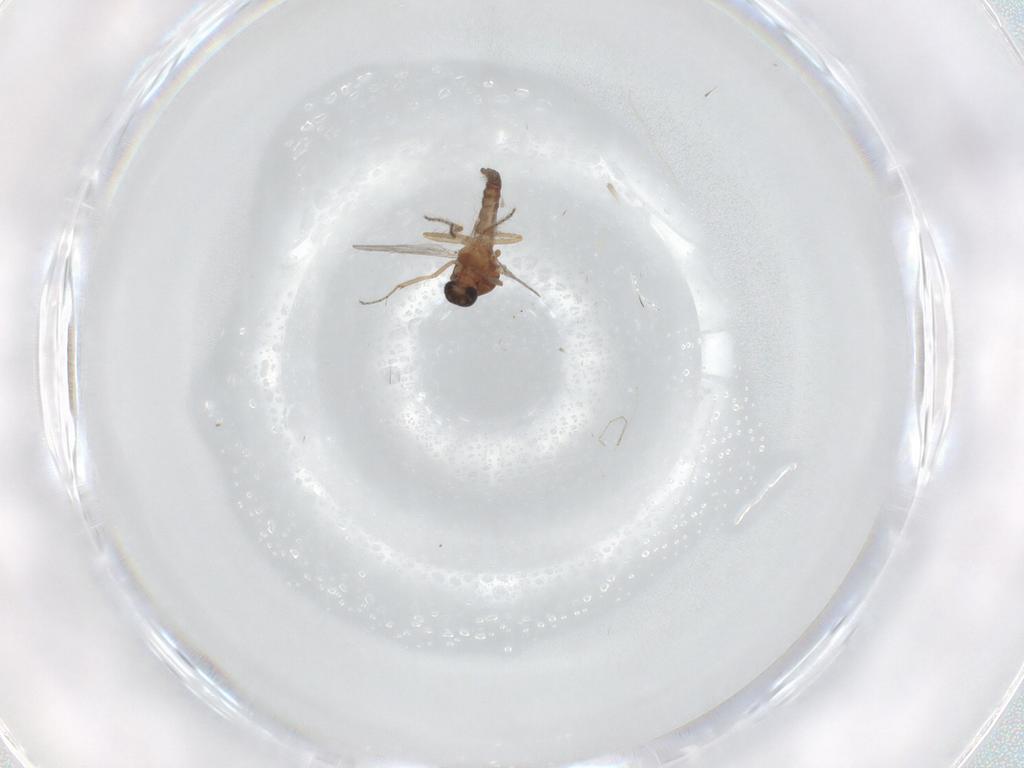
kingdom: Animalia
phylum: Arthropoda
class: Insecta
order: Diptera
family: Ceratopogonidae
